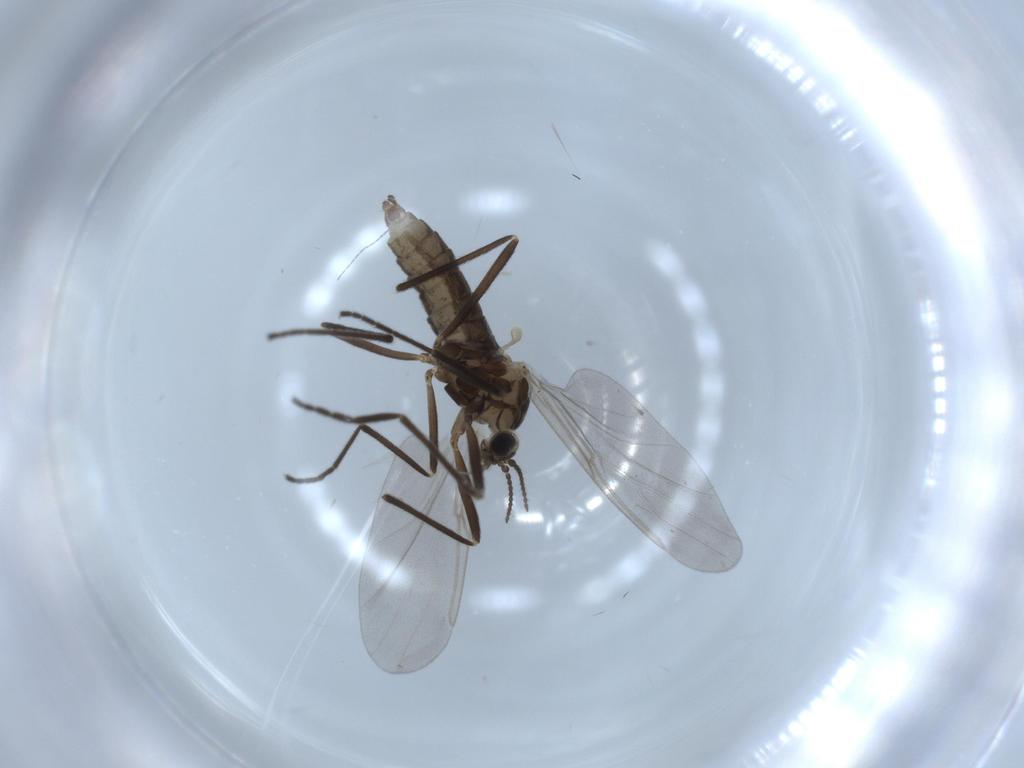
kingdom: Animalia
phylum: Arthropoda
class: Insecta
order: Diptera
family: Cecidomyiidae
